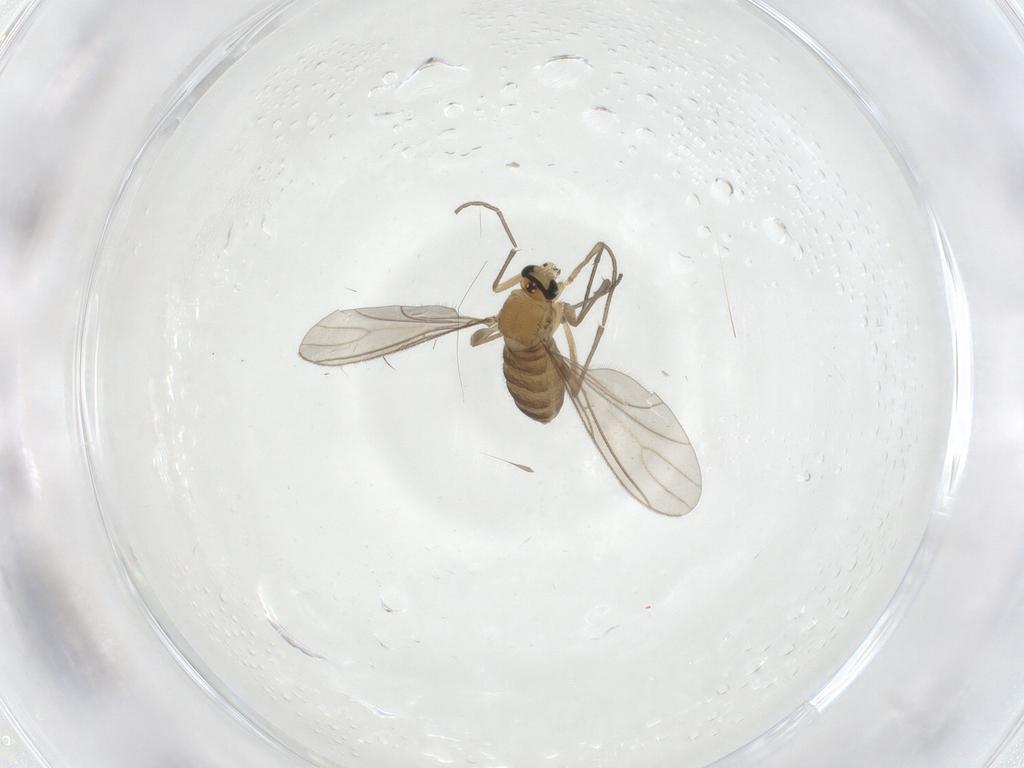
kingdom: Animalia
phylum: Arthropoda
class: Insecta
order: Diptera
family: Sciaridae
